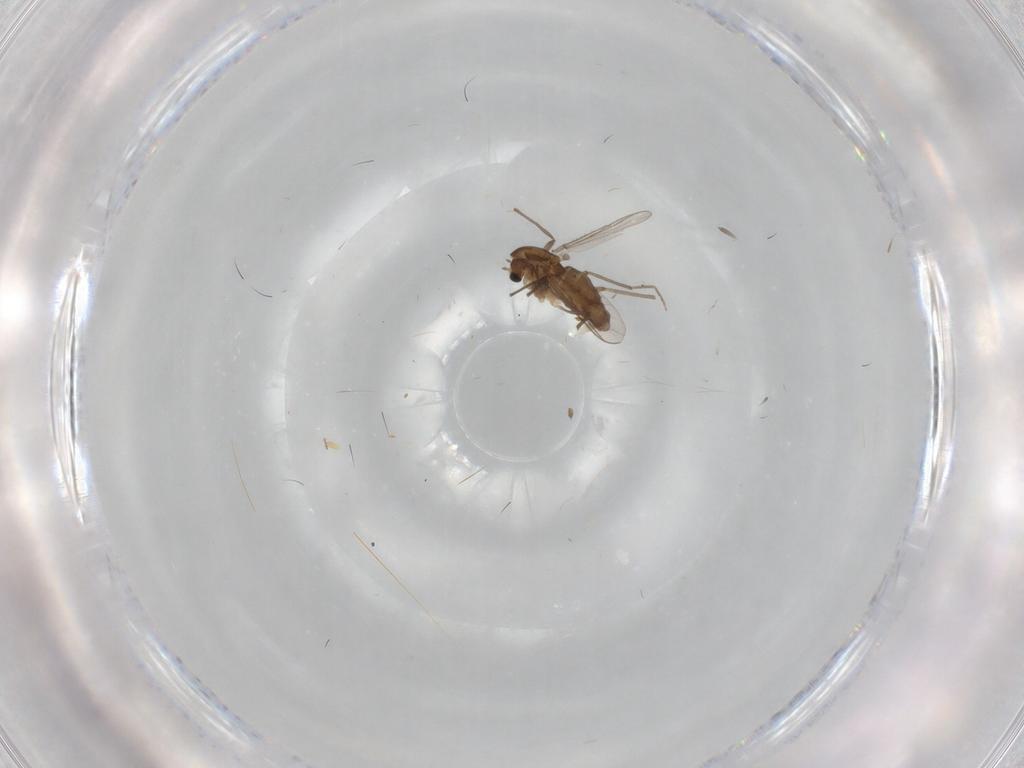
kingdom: Animalia
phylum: Arthropoda
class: Insecta
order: Diptera
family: Chironomidae
